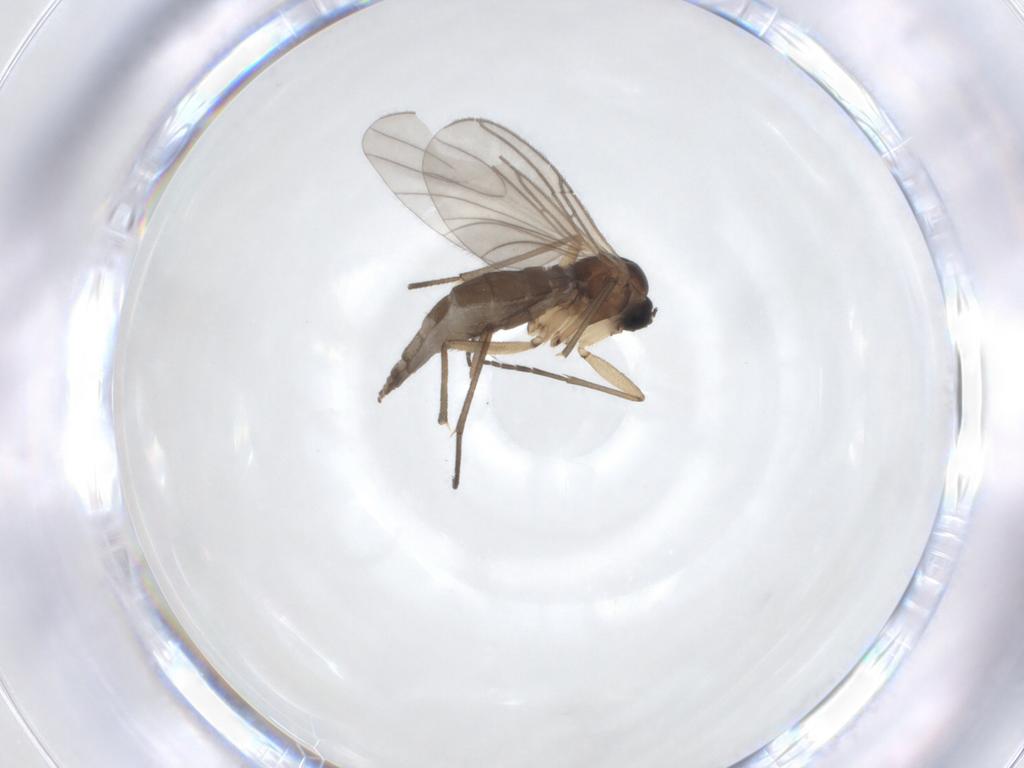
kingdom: Animalia
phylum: Arthropoda
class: Insecta
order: Diptera
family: Sciaridae
